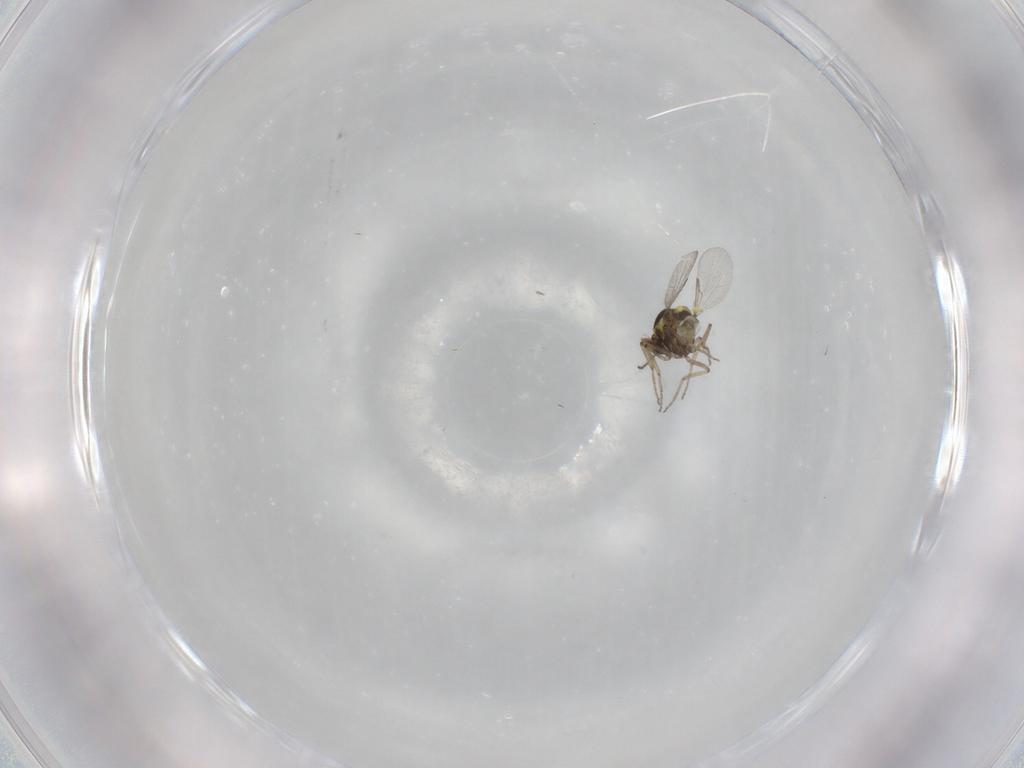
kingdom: Animalia
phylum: Arthropoda
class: Insecta
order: Diptera
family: Ceratopogonidae
